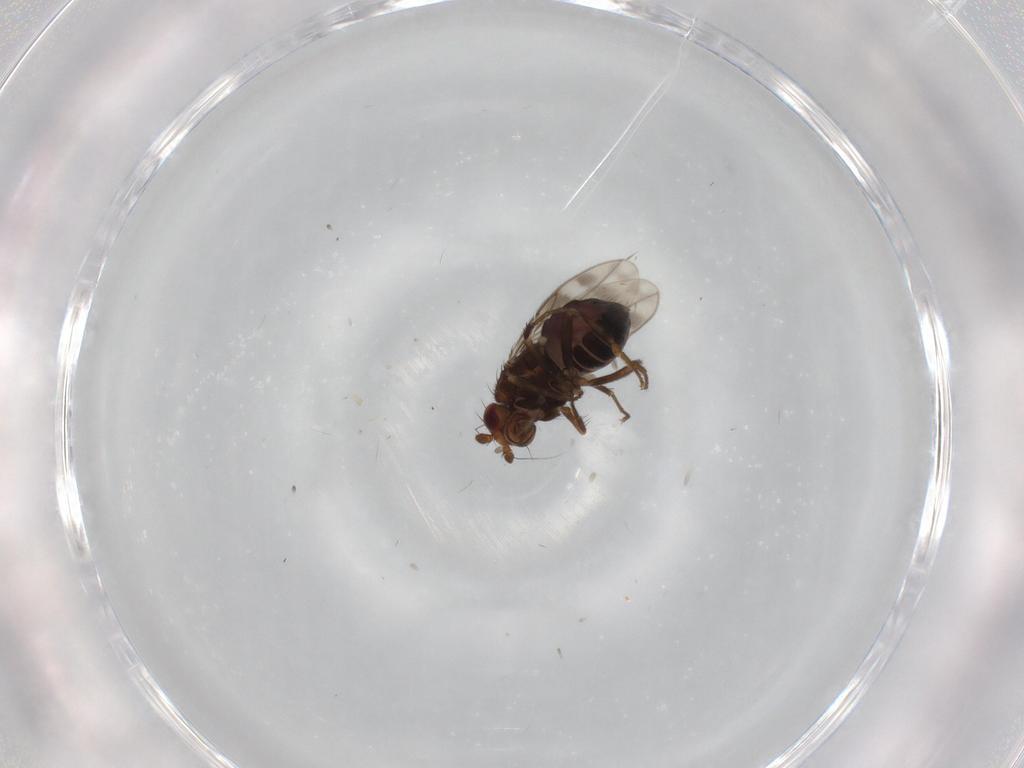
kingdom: Animalia
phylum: Arthropoda
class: Insecta
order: Diptera
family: Sphaeroceridae
